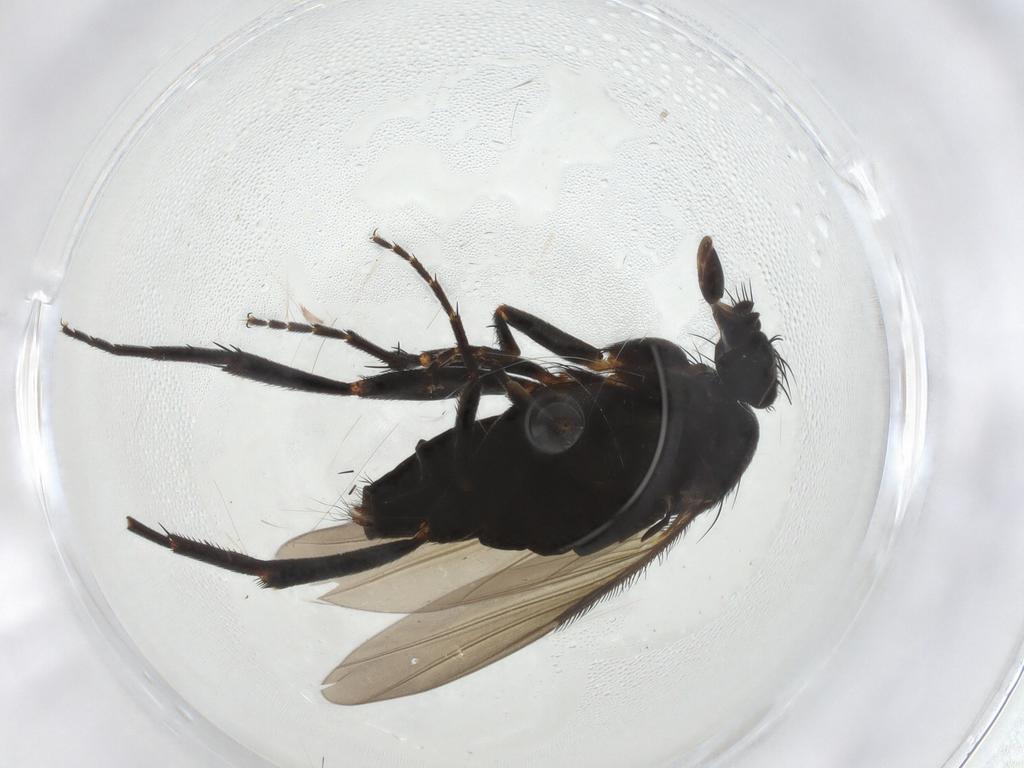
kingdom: Animalia
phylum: Arthropoda
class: Insecta
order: Diptera
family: Phoridae
